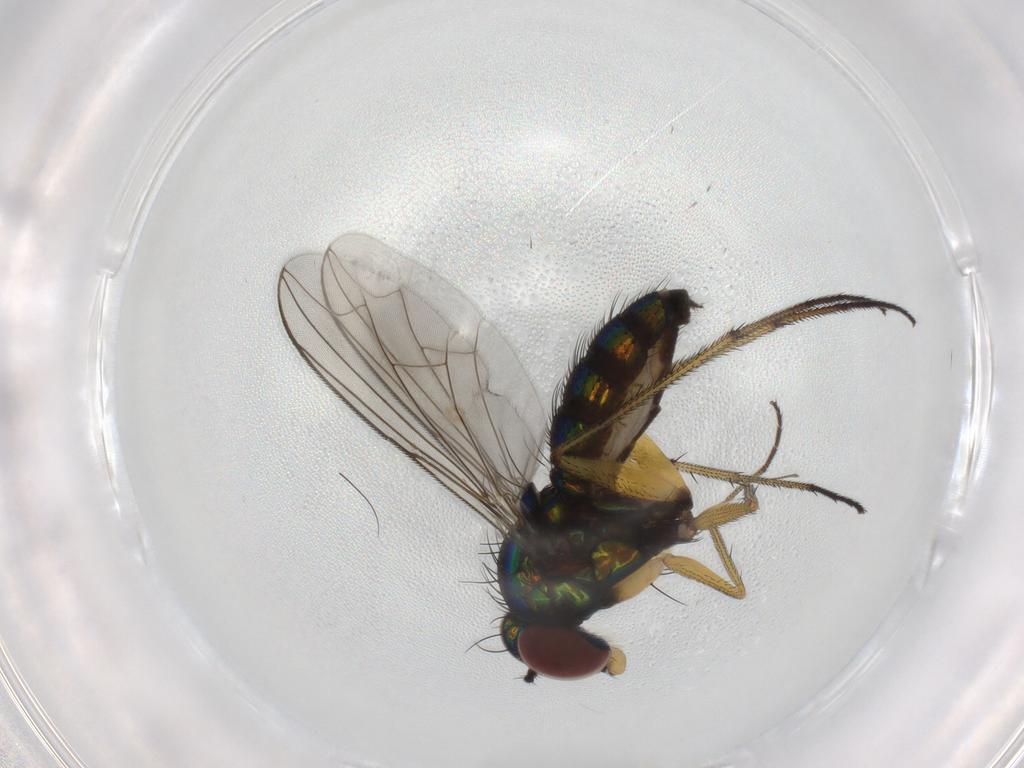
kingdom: Animalia
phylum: Arthropoda
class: Insecta
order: Diptera
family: Dolichopodidae
